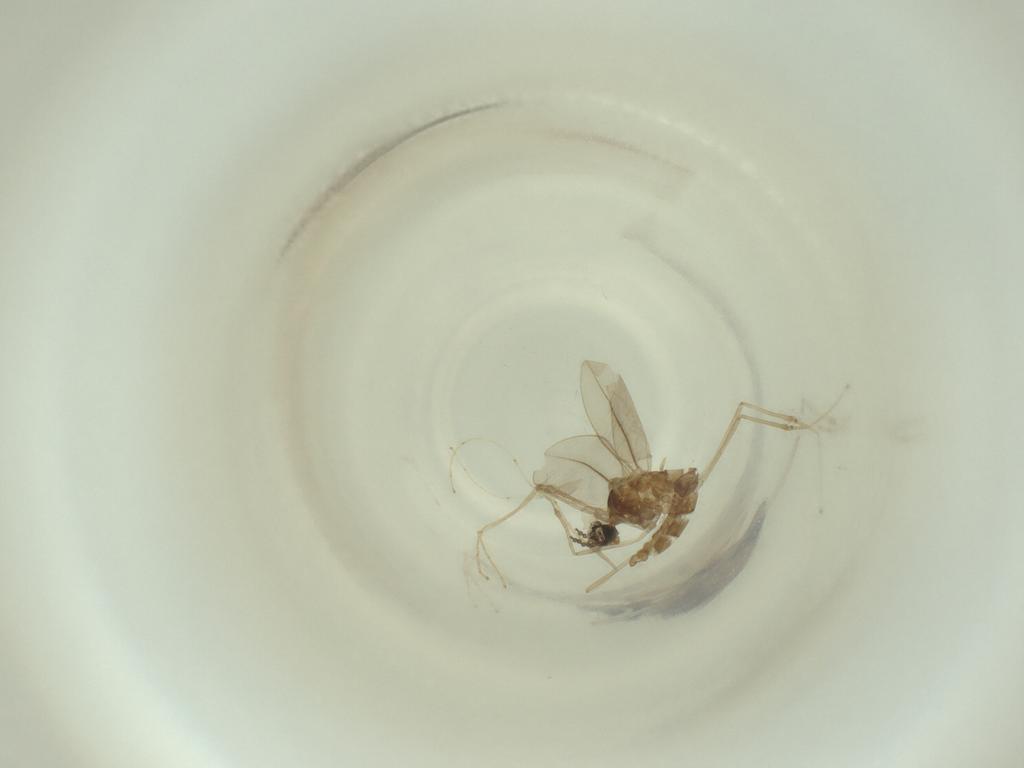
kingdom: Animalia
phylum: Arthropoda
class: Insecta
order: Diptera
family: Cecidomyiidae
